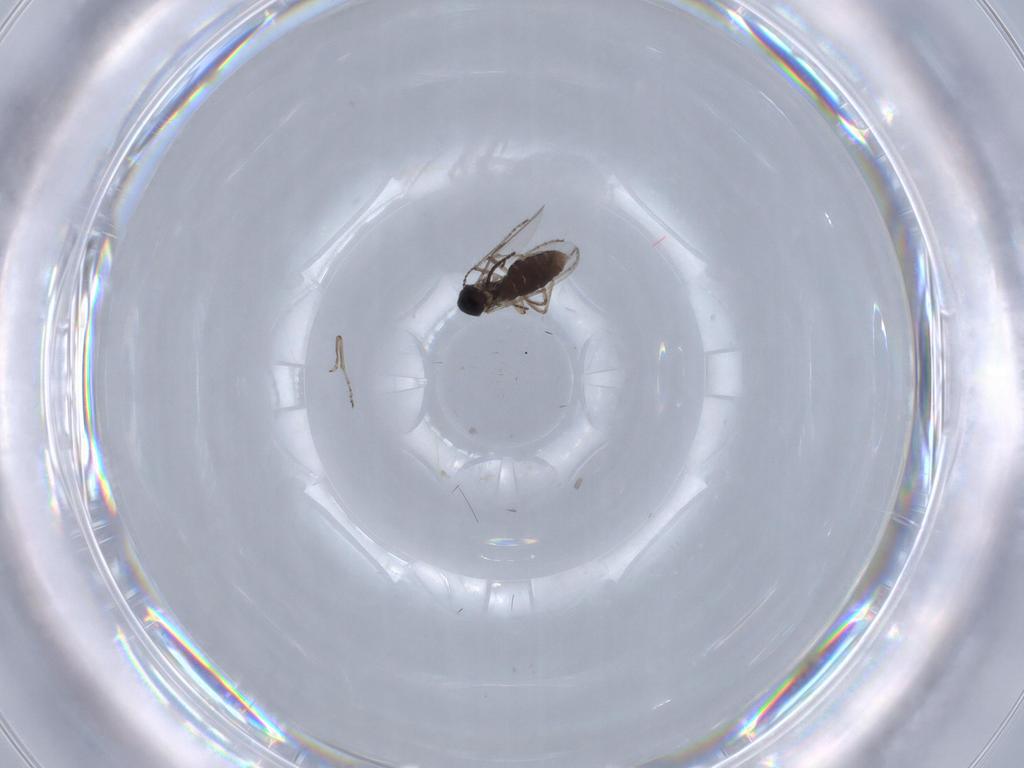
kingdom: Animalia
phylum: Arthropoda
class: Insecta
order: Diptera
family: Ceratopogonidae
